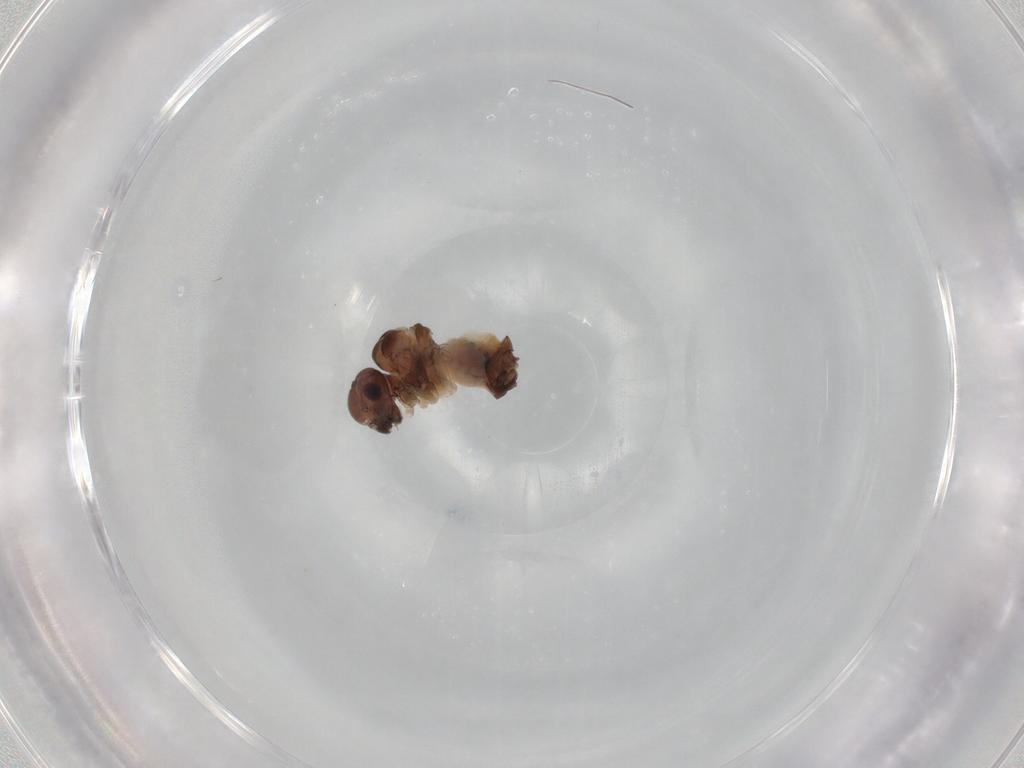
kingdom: Animalia
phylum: Arthropoda
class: Insecta
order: Psocodea
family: Peripsocidae
